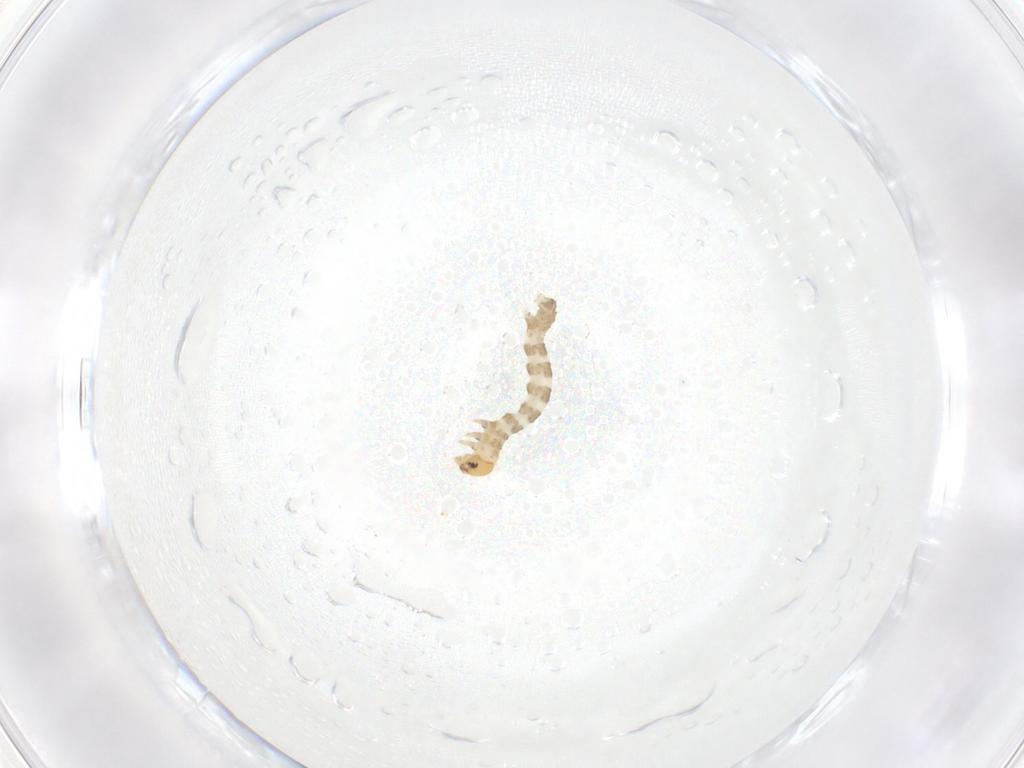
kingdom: Animalia
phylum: Arthropoda
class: Insecta
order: Lepidoptera
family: Geometridae
